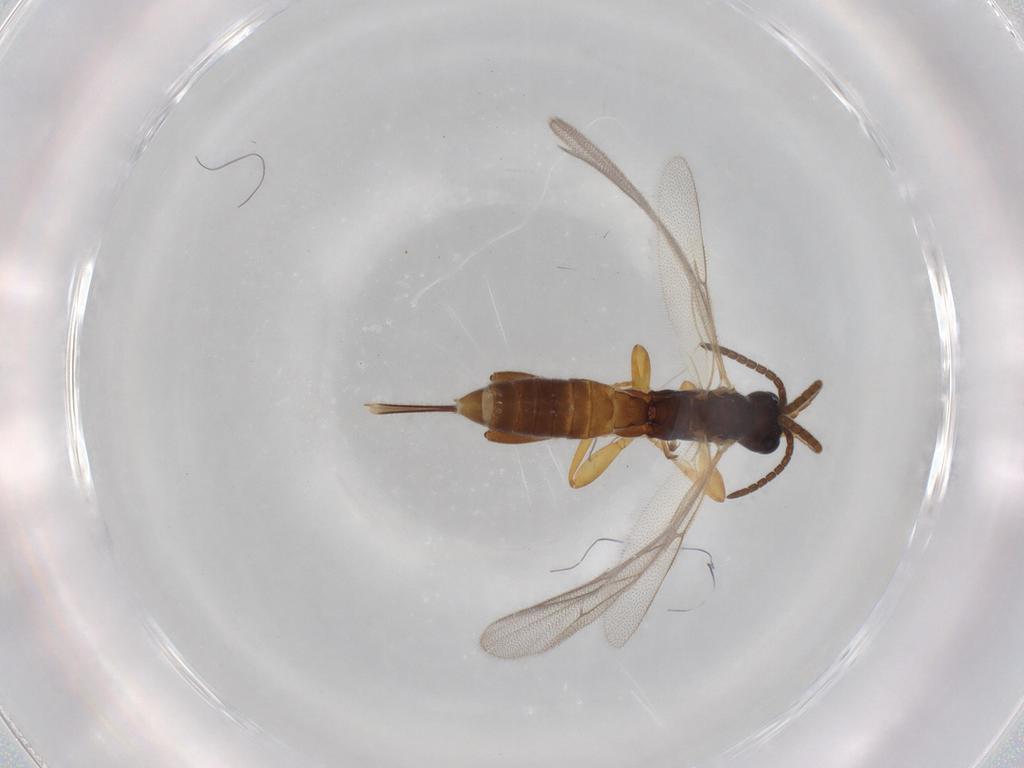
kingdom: Animalia
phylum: Arthropoda
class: Insecta
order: Hymenoptera
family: Ichneumonidae
